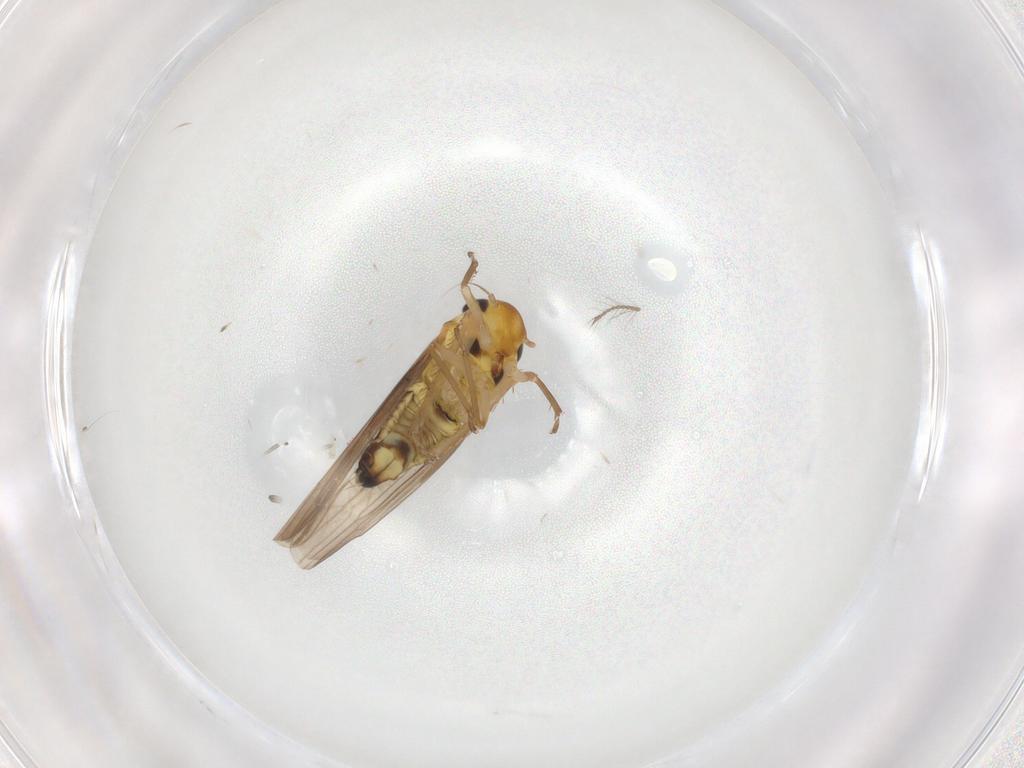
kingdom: Animalia
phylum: Arthropoda
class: Insecta
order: Hemiptera
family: Cicadellidae
